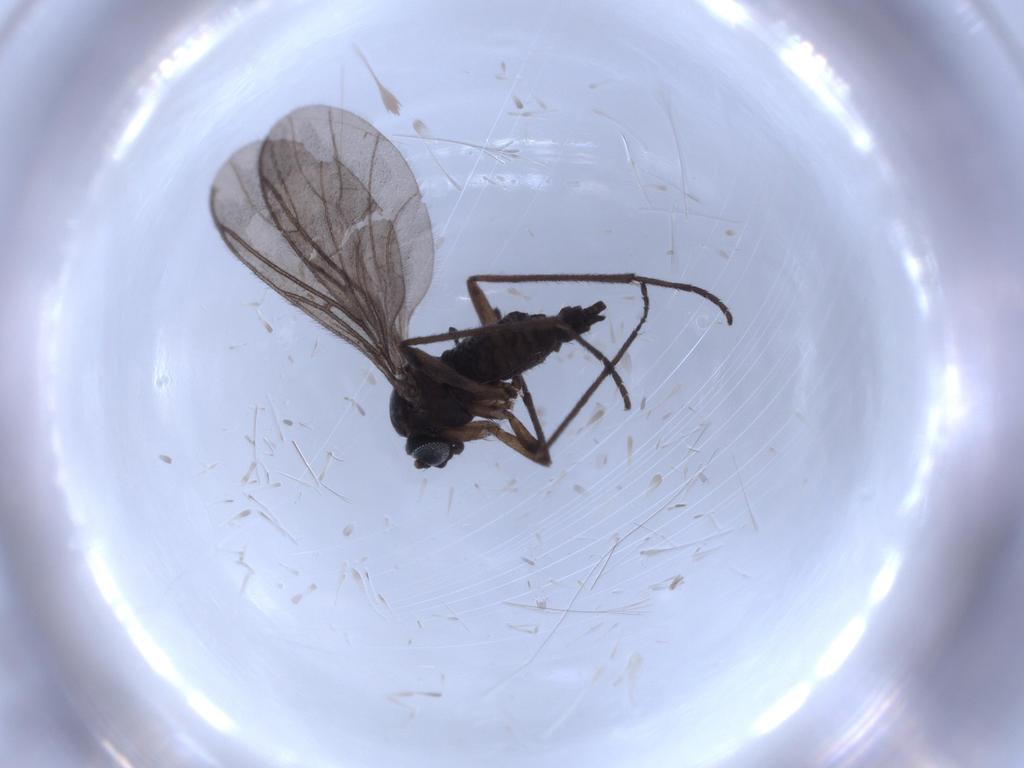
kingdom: Animalia
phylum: Arthropoda
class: Insecta
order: Diptera
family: Sciaridae
